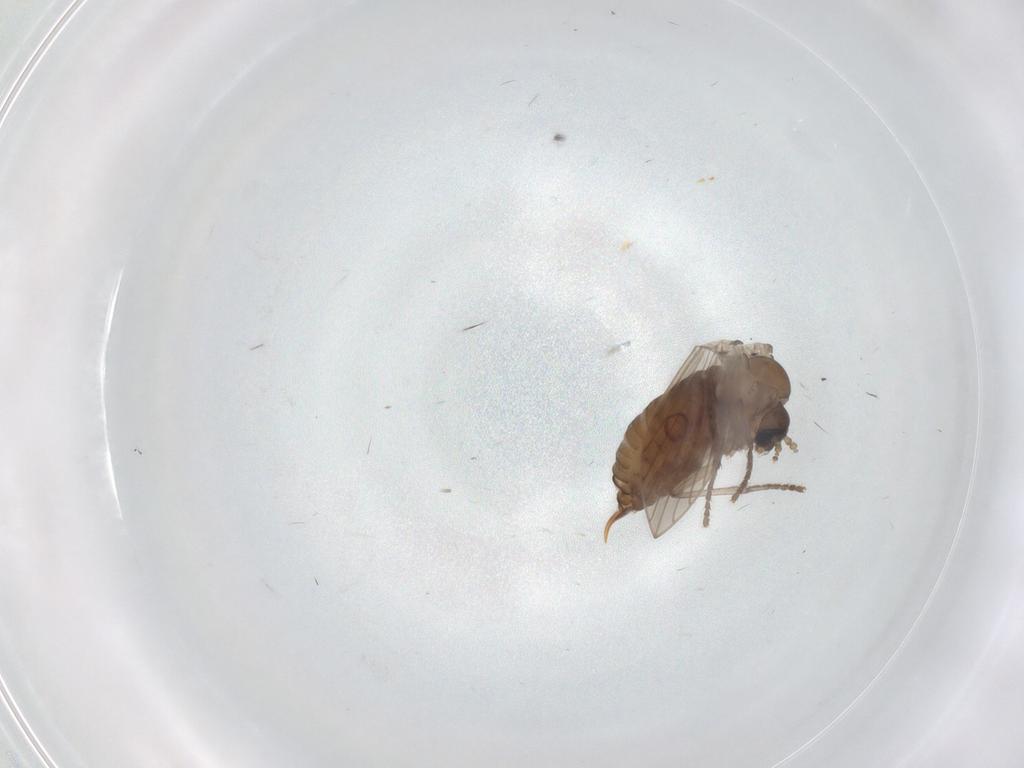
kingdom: Animalia
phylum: Arthropoda
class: Insecta
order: Diptera
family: Psychodidae
